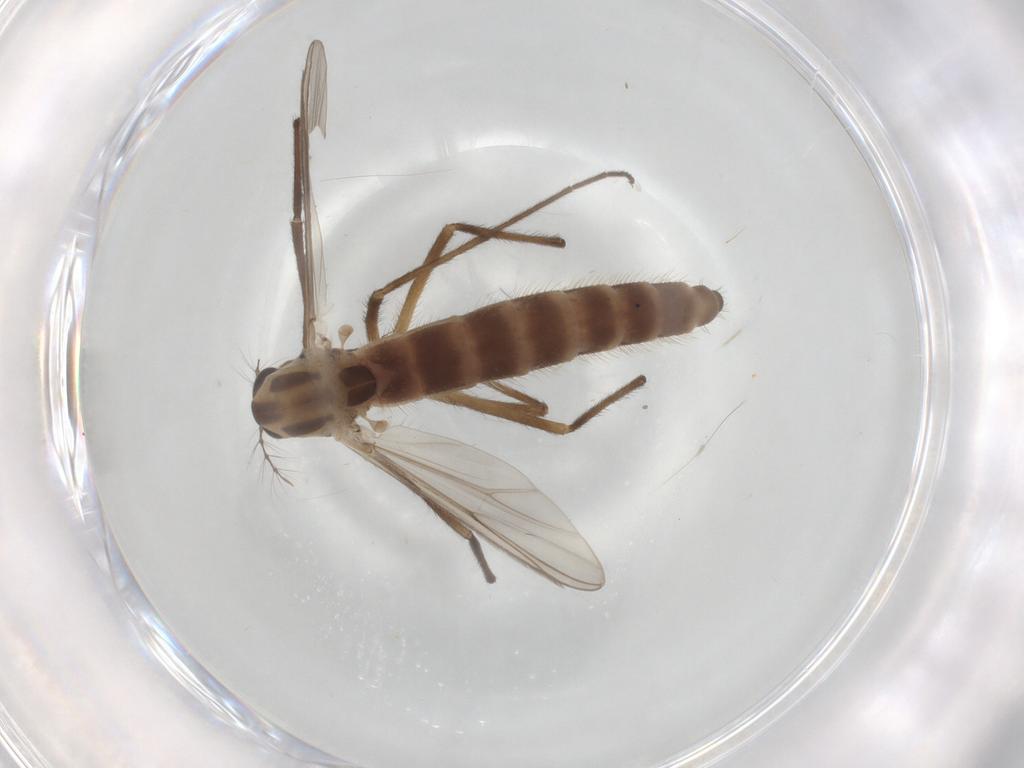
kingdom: Animalia
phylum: Arthropoda
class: Insecta
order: Diptera
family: Chironomidae
